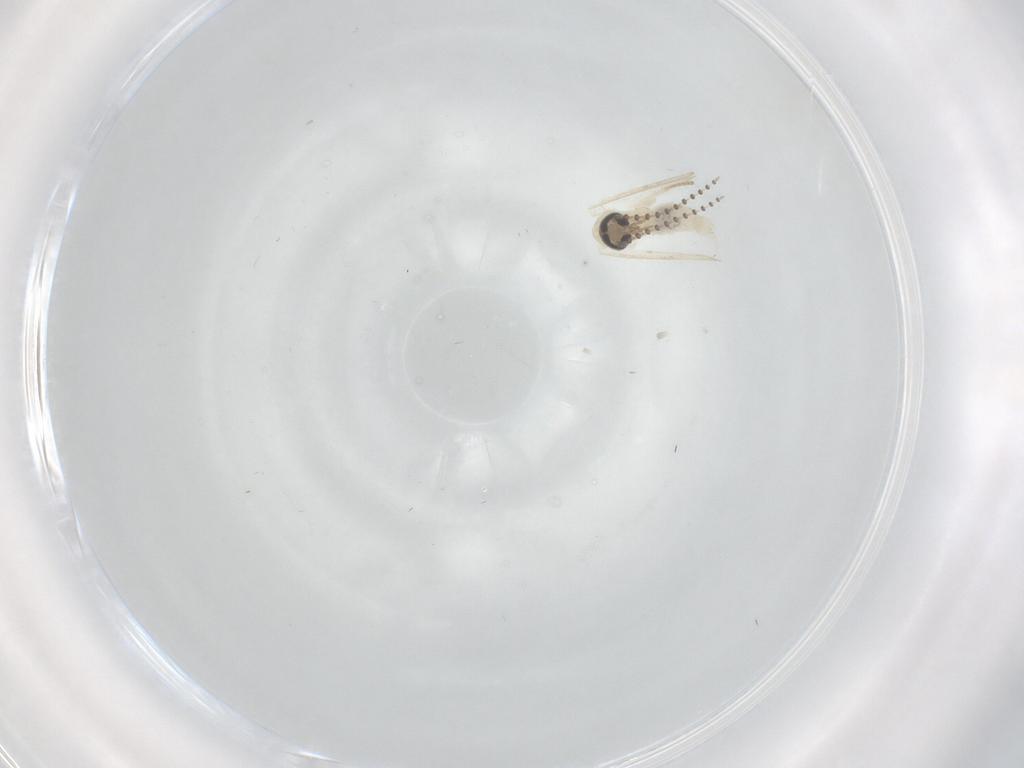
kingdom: Animalia
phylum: Arthropoda
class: Insecta
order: Diptera
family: Psychodidae
